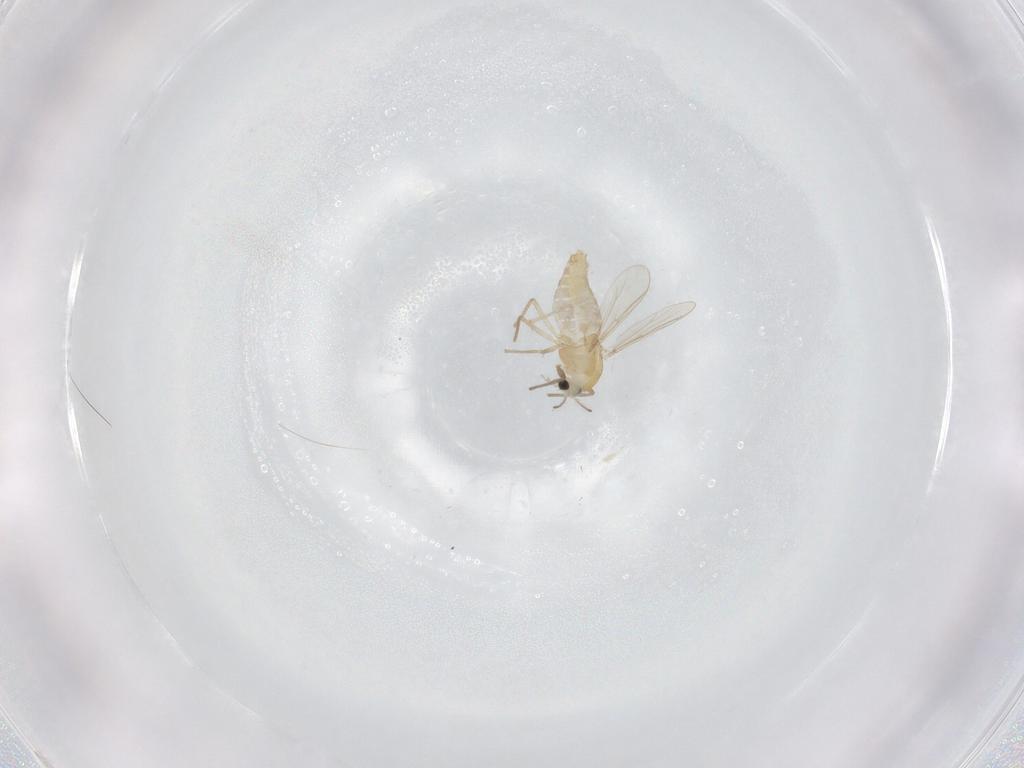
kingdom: Animalia
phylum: Arthropoda
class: Insecta
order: Diptera
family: Chironomidae
